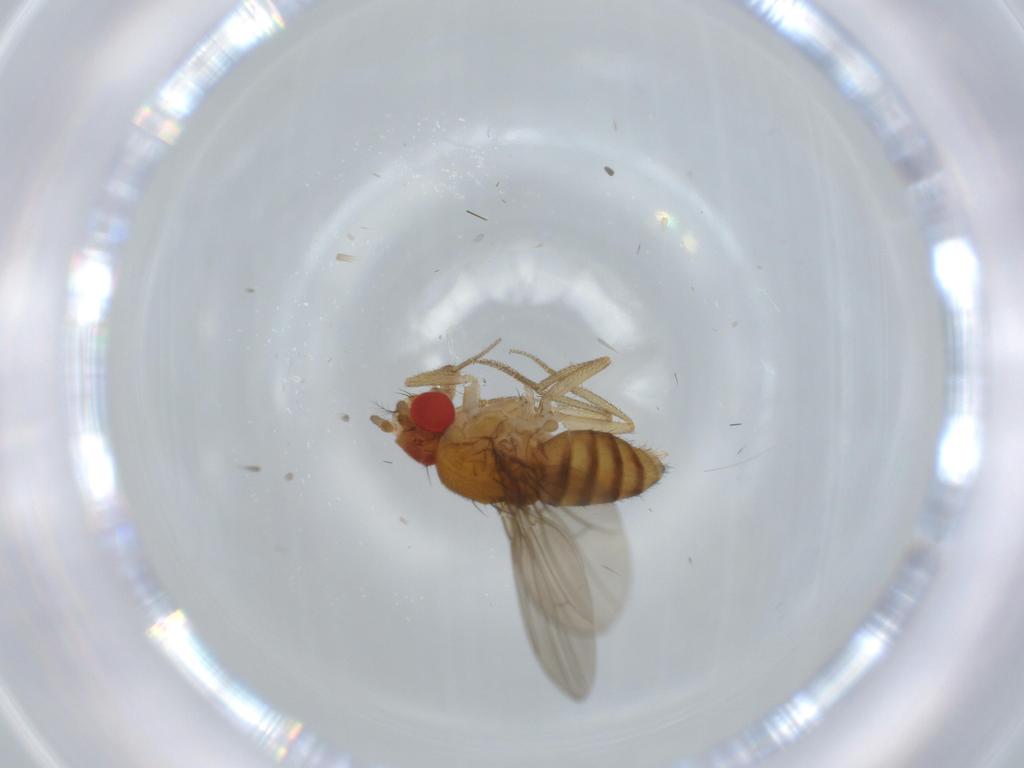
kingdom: Animalia
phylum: Arthropoda
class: Insecta
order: Diptera
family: Drosophilidae
